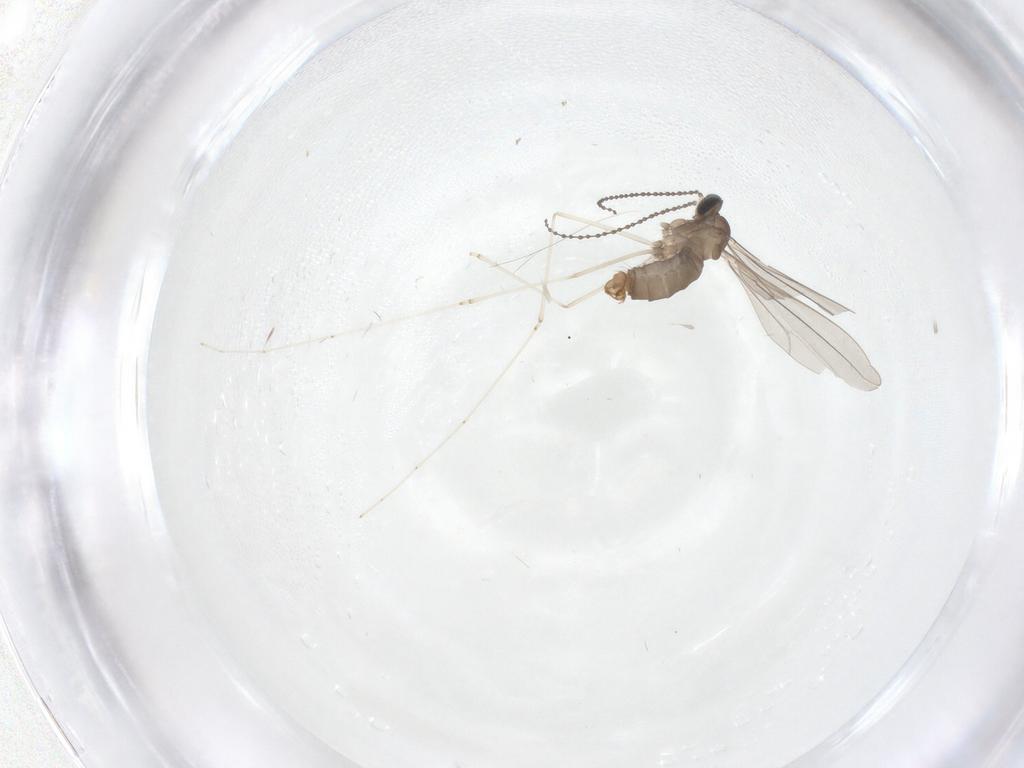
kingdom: Animalia
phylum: Arthropoda
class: Insecta
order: Diptera
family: Cecidomyiidae
